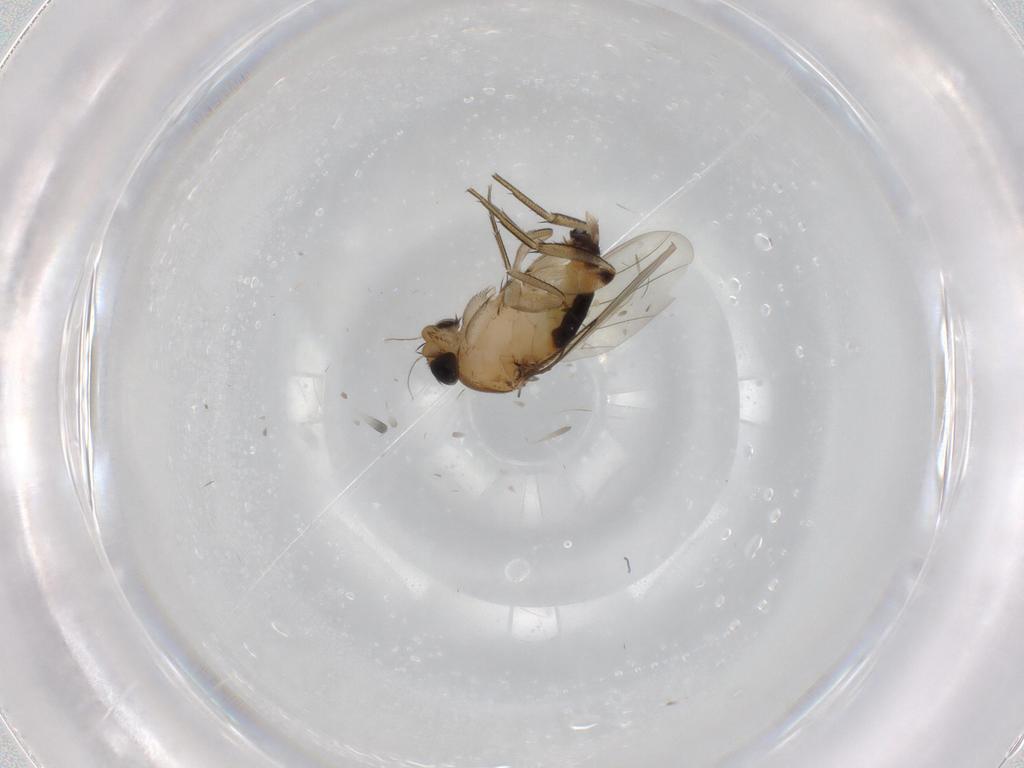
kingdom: Animalia
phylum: Arthropoda
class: Insecta
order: Diptera
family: Phoridae
